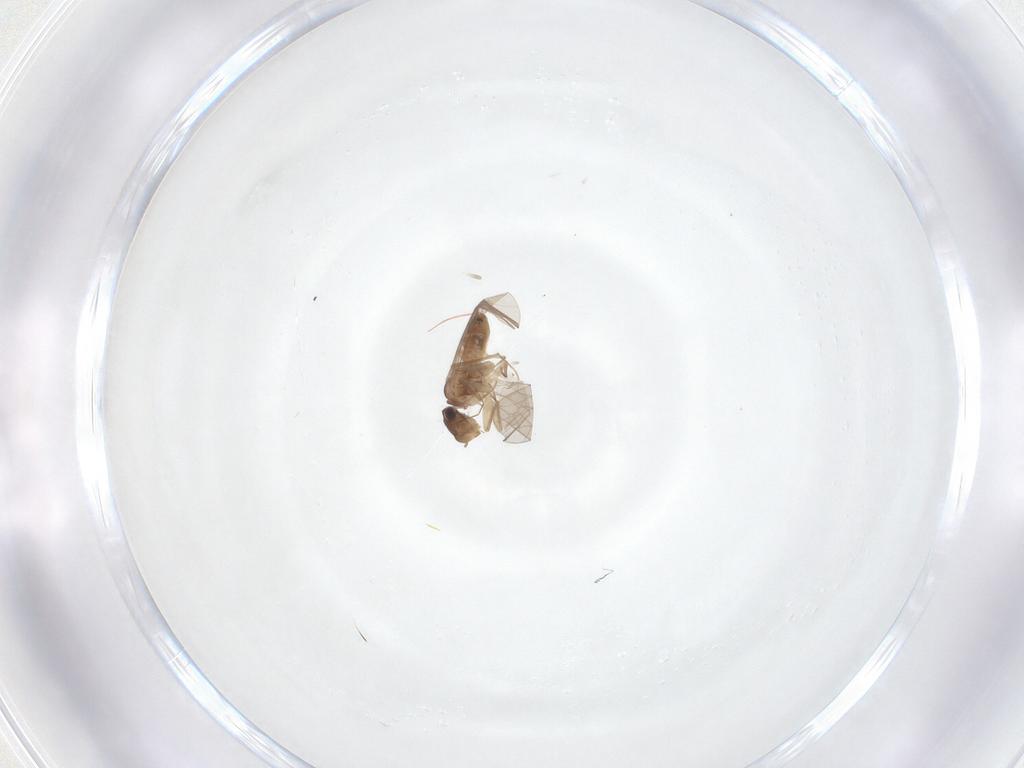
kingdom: Animalia
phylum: Arthropoda
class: Insecta
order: Psocodea
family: Lepidopsocidae
